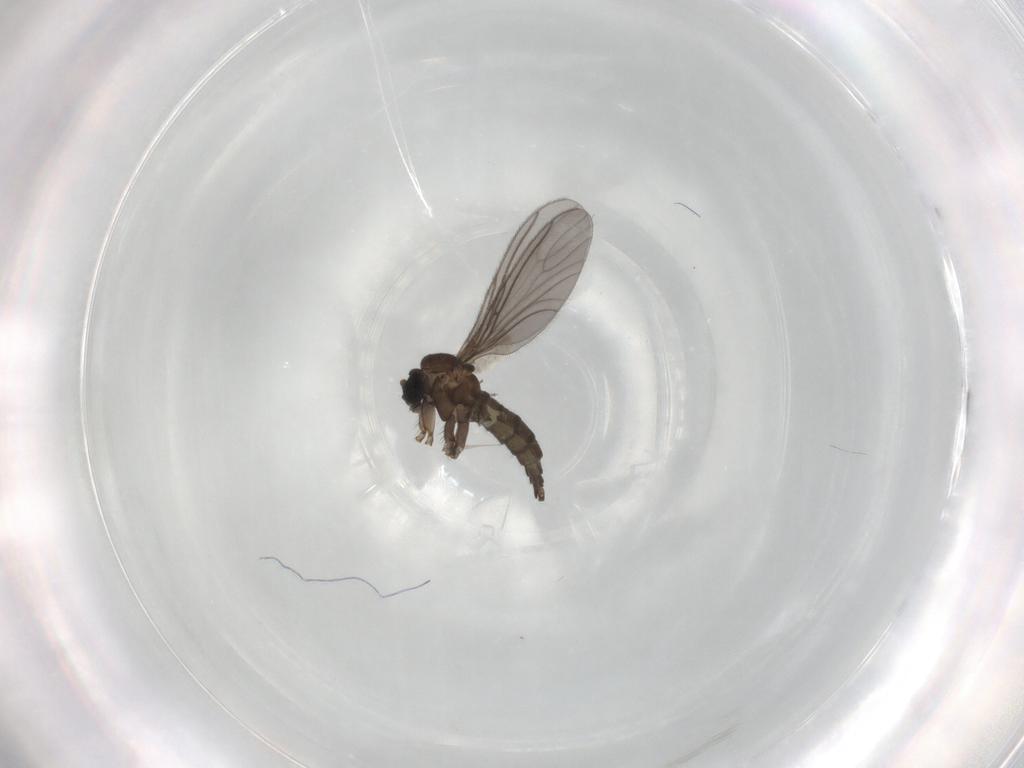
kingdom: Animalia
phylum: Arthropoda
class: Insecta
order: Diptera
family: Sciaridae
